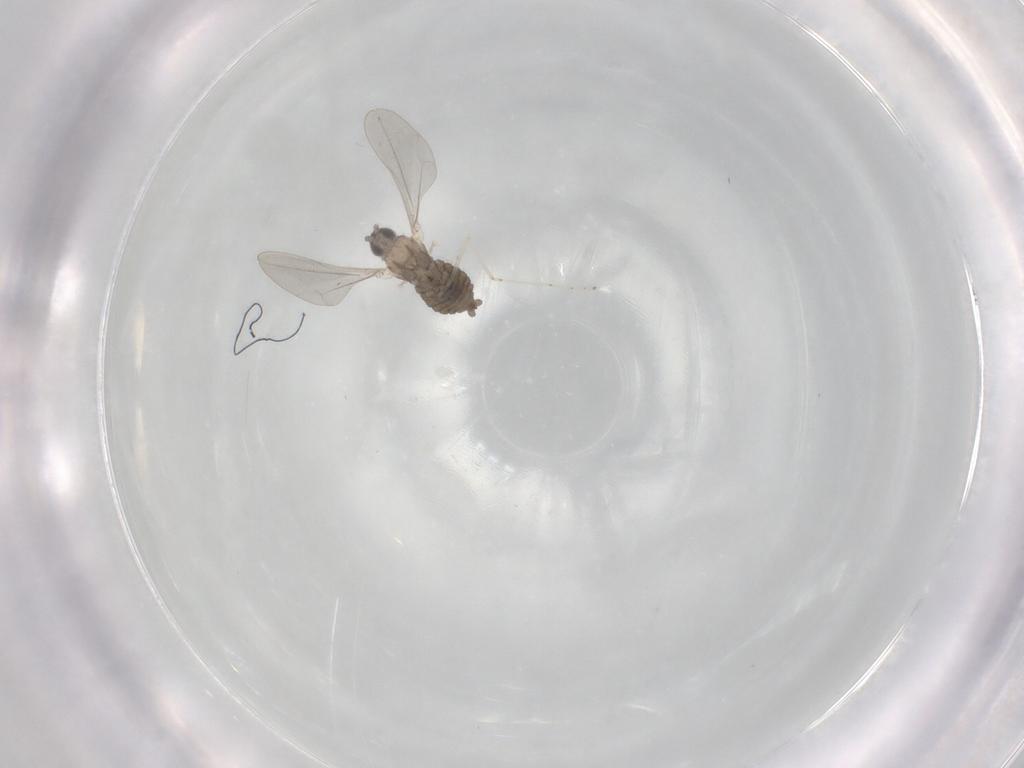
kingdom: Animalia
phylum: Arthropoda
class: Insecta
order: Diptera
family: Cecidomyiidae
